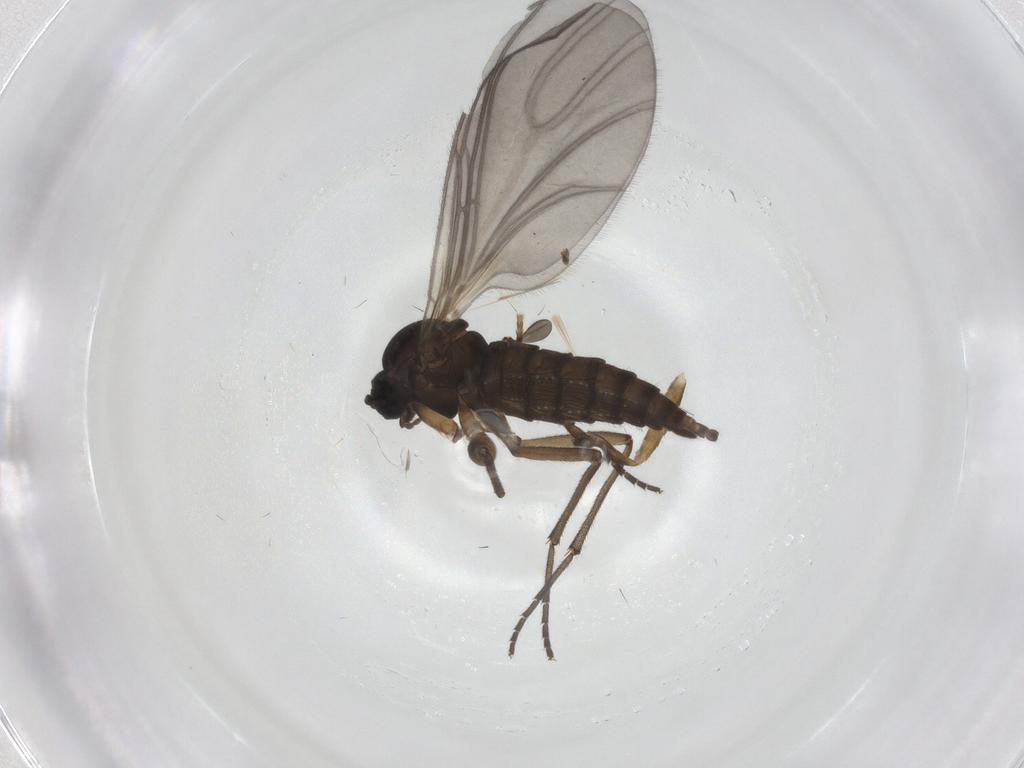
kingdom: Animalia
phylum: Arthropoda
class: Insecta
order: Diptera
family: Sciaridae
